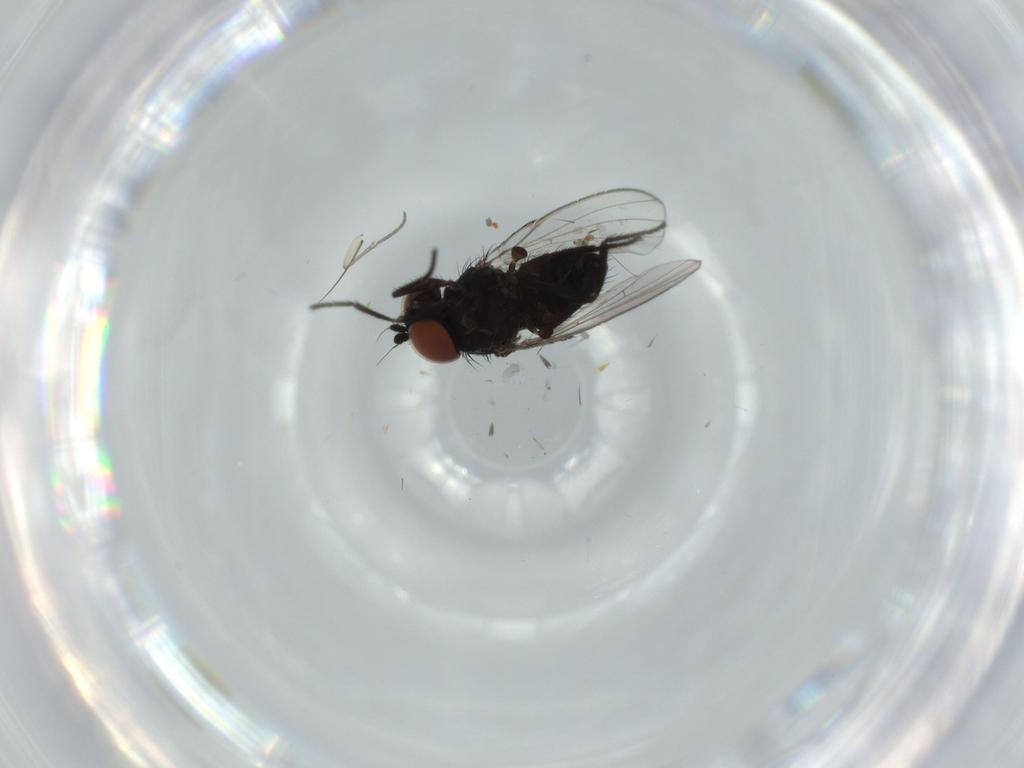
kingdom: Animalia
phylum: Arthropoda
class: Insecta
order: Diptera
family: Milichiidae
